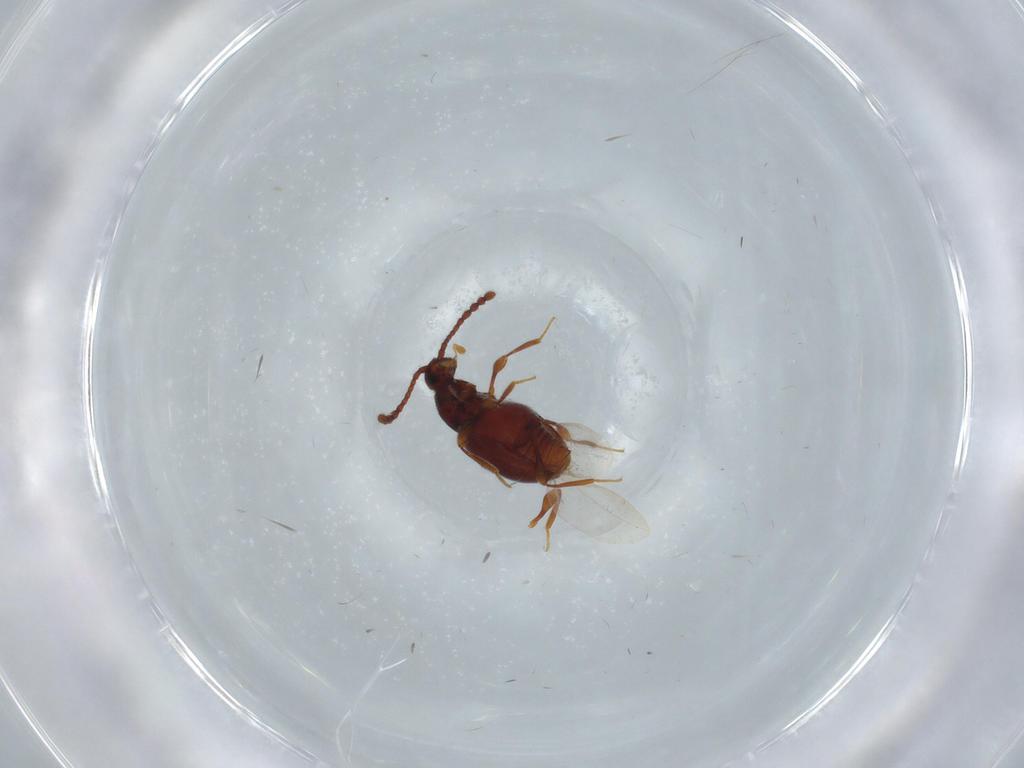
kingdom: Animalia
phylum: Arthropoda
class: Insecta
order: Coleoptera
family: Staphylinidae
